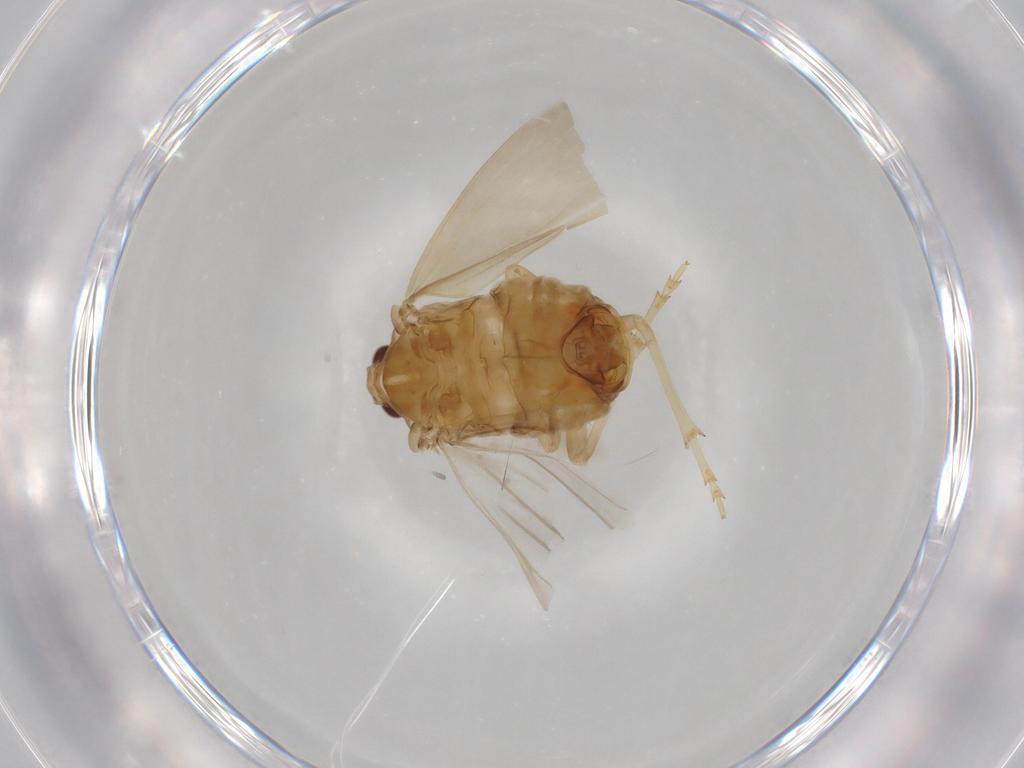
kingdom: Animalia
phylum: Arthropoda
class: Insecta
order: Hemiptera
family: Fulgoroidea_incertae_sedis
